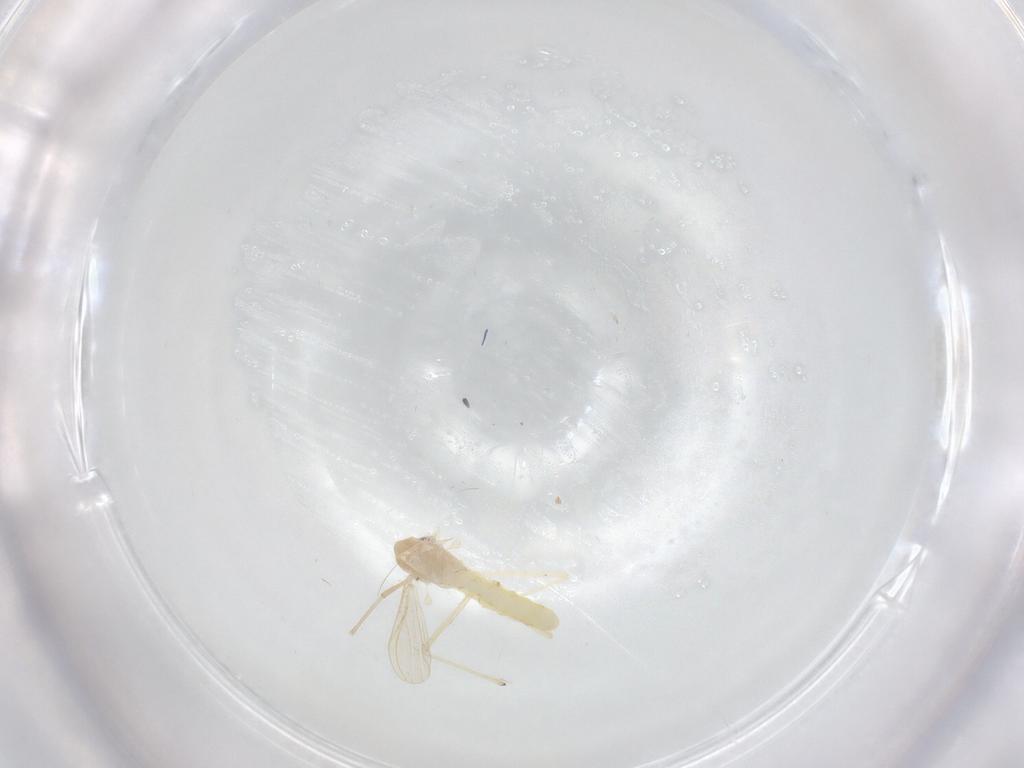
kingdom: Animalia
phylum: Arthropoda
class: Insecta
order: Diptera
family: Chironomidae
